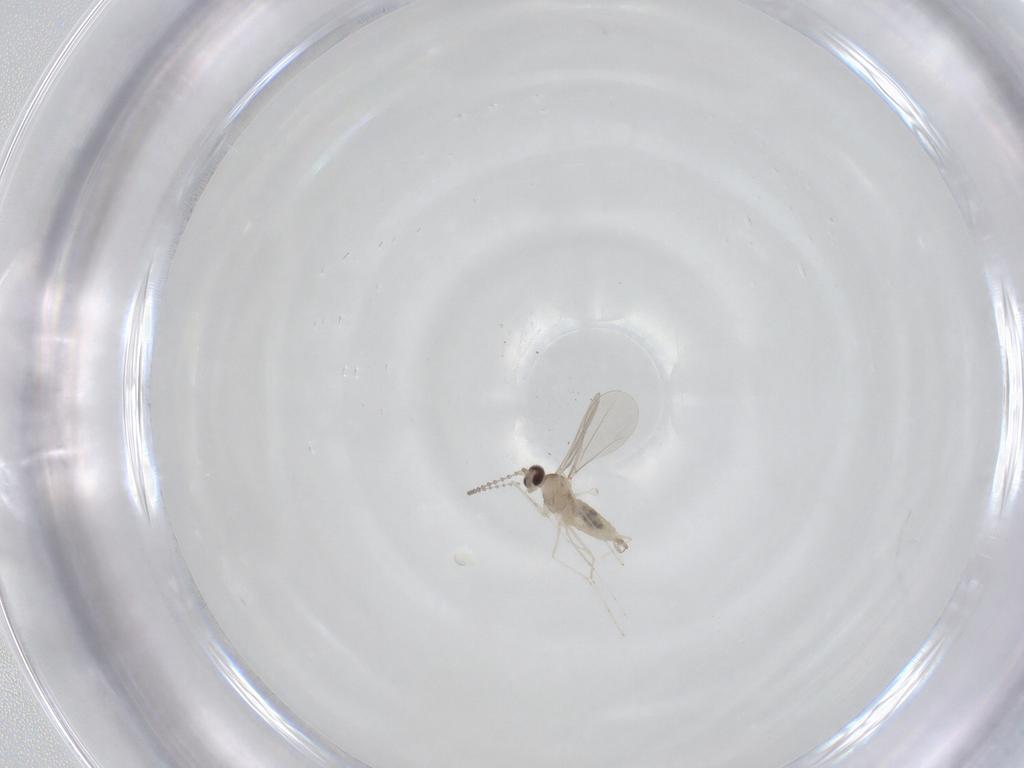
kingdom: Animalia
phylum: Arthropoda
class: Insecta
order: Diptera
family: Cecidomyiidae
